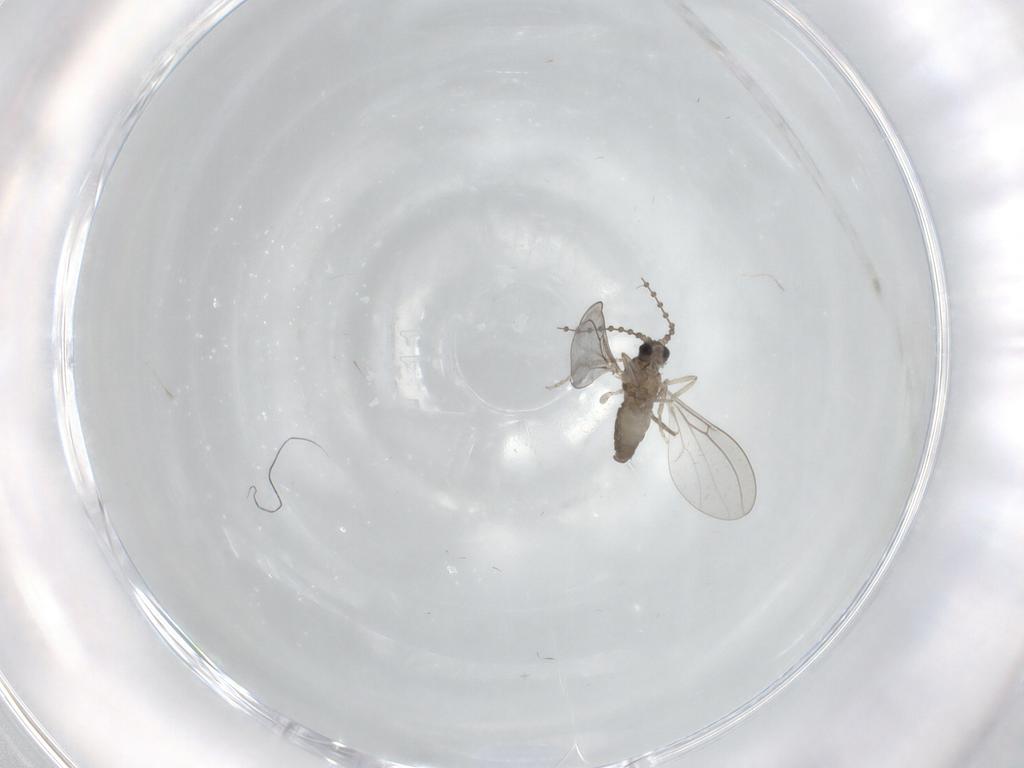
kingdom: Animalia
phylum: Arthropoda
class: Insecta
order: Diptera
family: Phoridae
